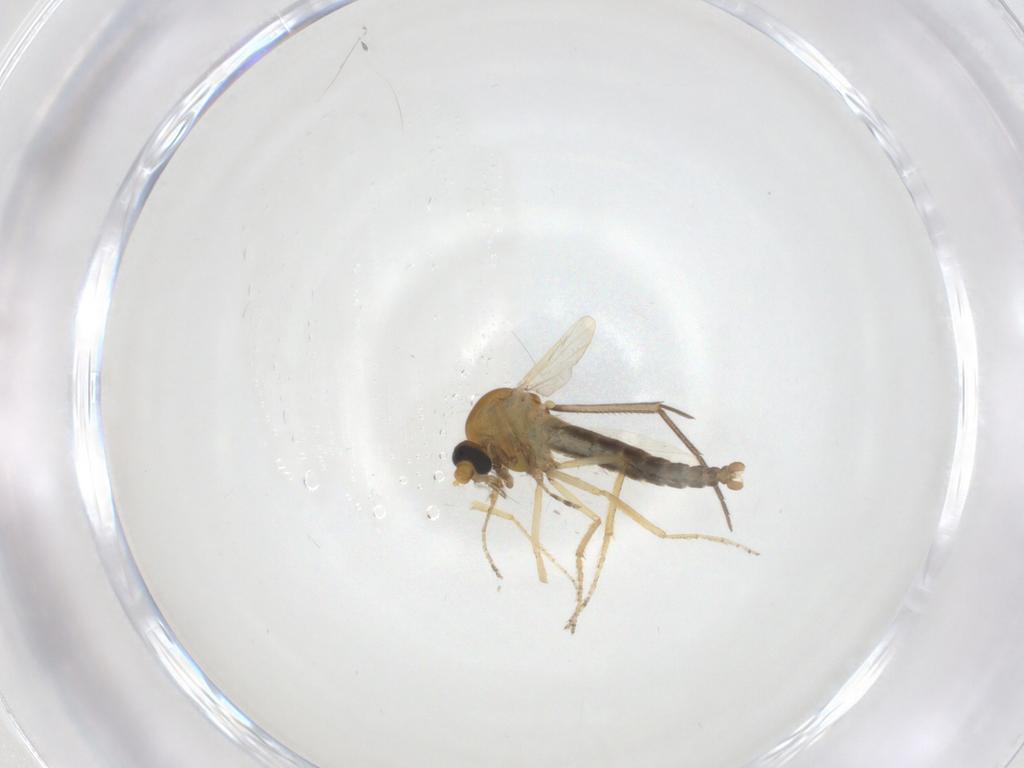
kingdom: Animalia
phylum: Arthropoda
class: Insecta
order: Diptera
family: Ceratopogonidae
